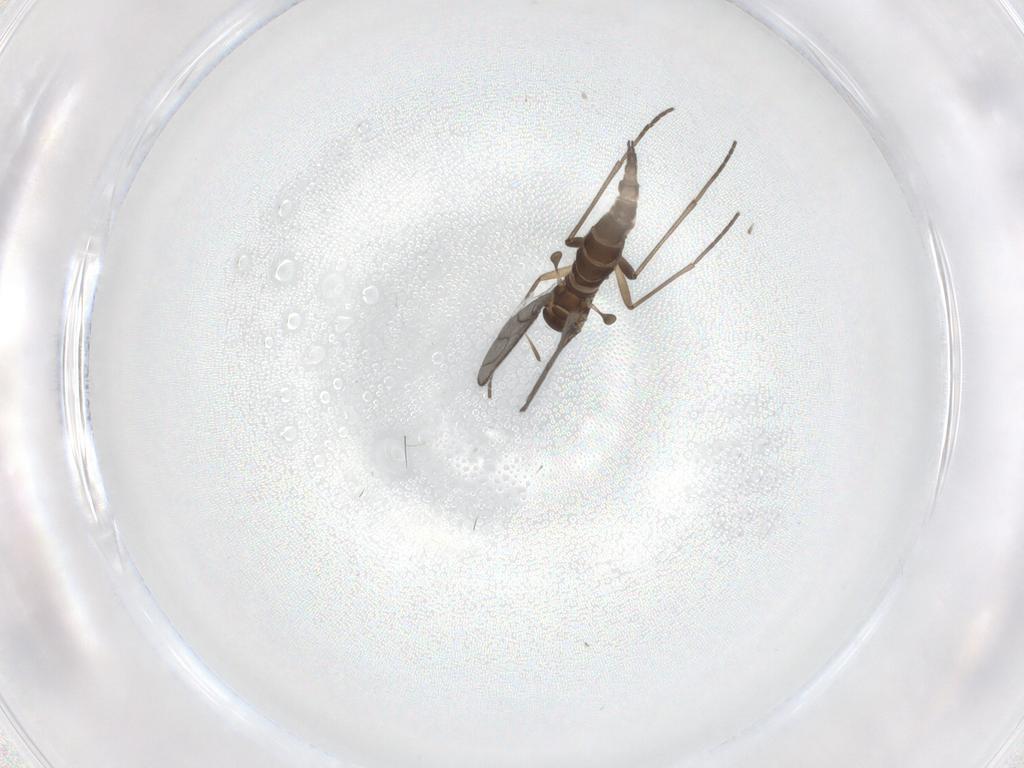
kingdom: Animalia
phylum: Arthropoda
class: Insecta
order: Diptera
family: Sciaridae
